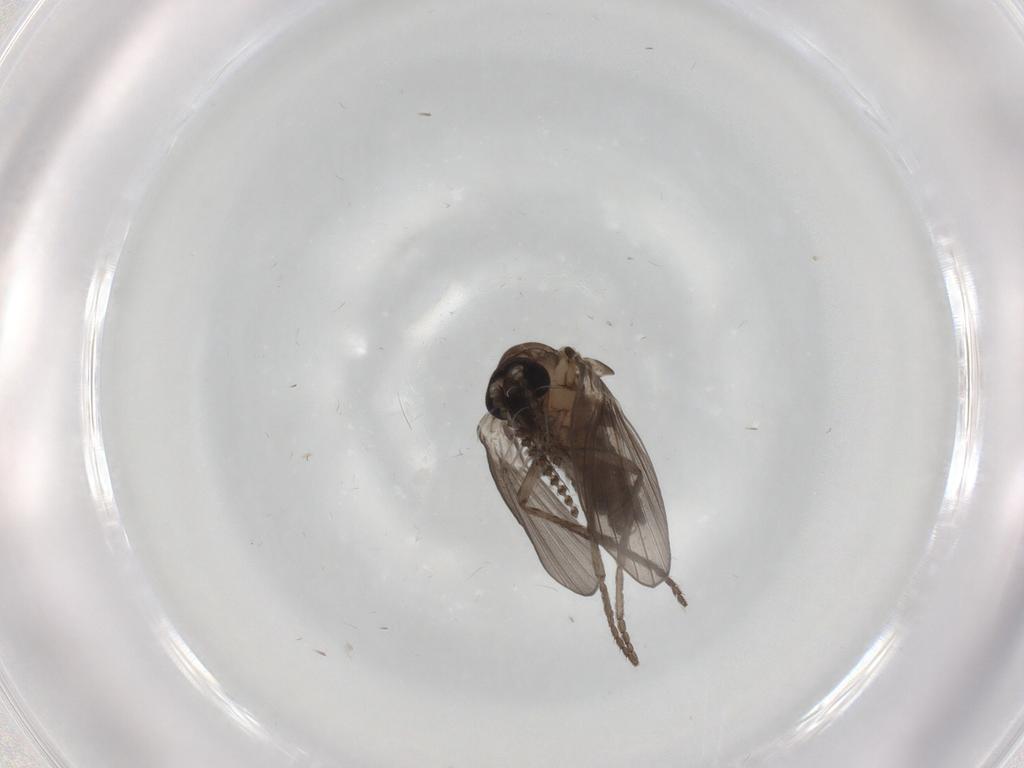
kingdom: Animalia
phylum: Arthropoda
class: Insecta
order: Diptera
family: Psychodidae
